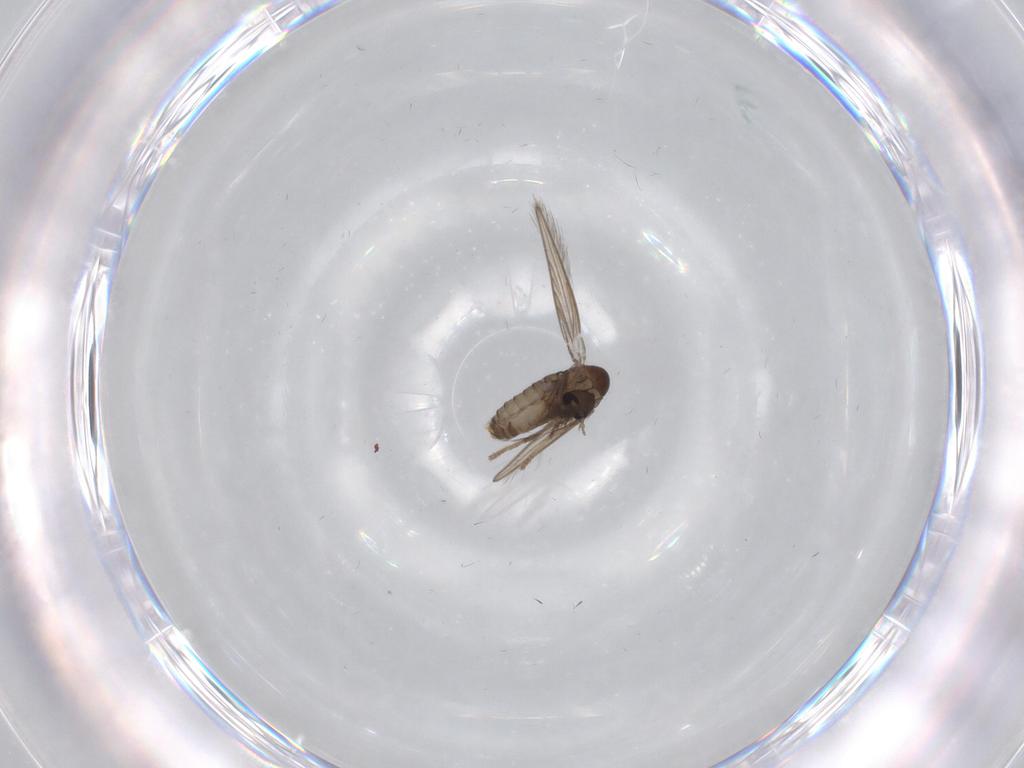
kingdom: Animalia
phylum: Arthropoda
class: Insecta
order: Diptera
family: Psychodidae
